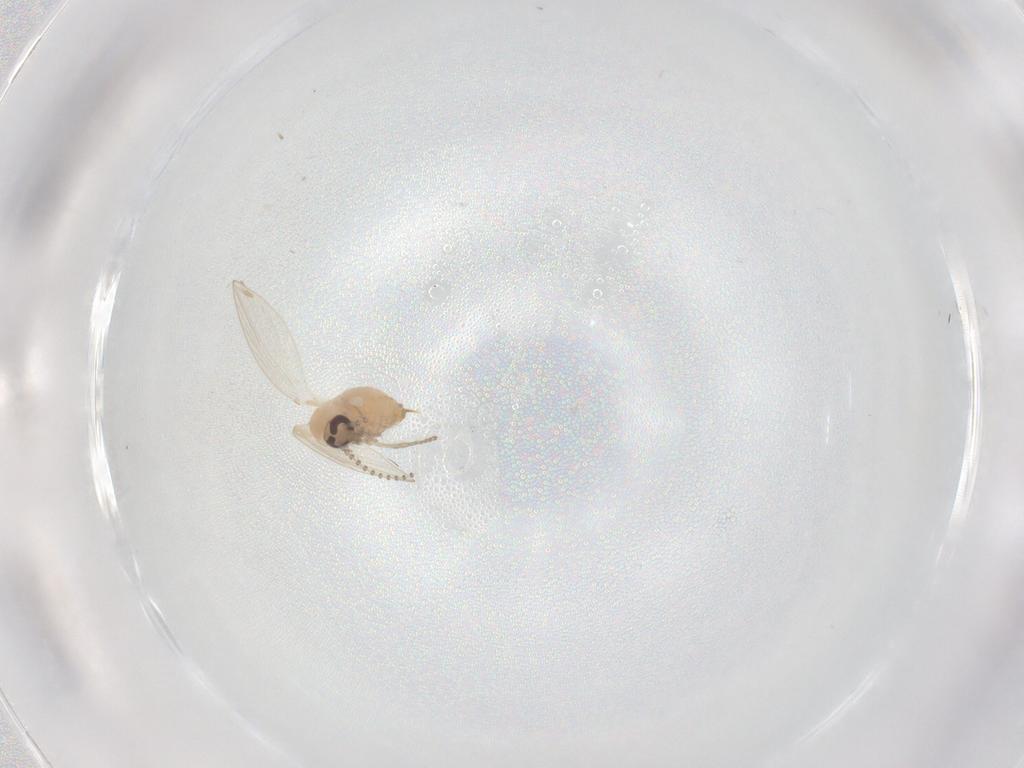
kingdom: Animalia
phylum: Arthropoda
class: Insecta
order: Diptera
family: Psychodidae
